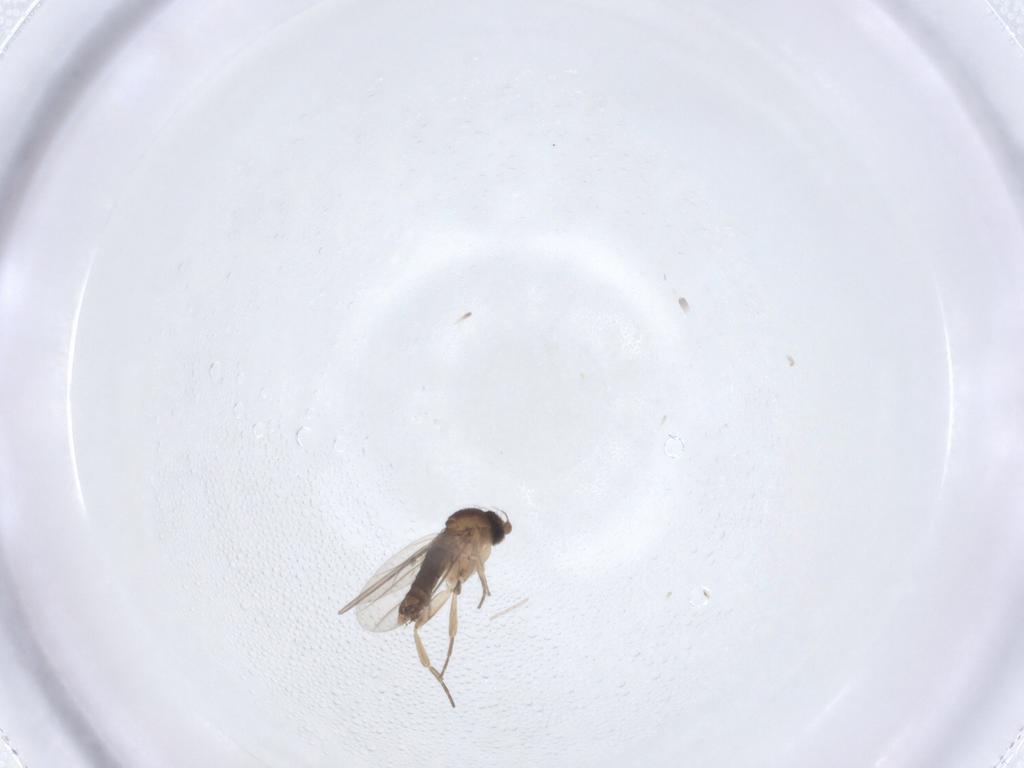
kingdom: Animalia
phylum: Arthropoda
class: Insecta
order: Diptera
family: Phoridae
